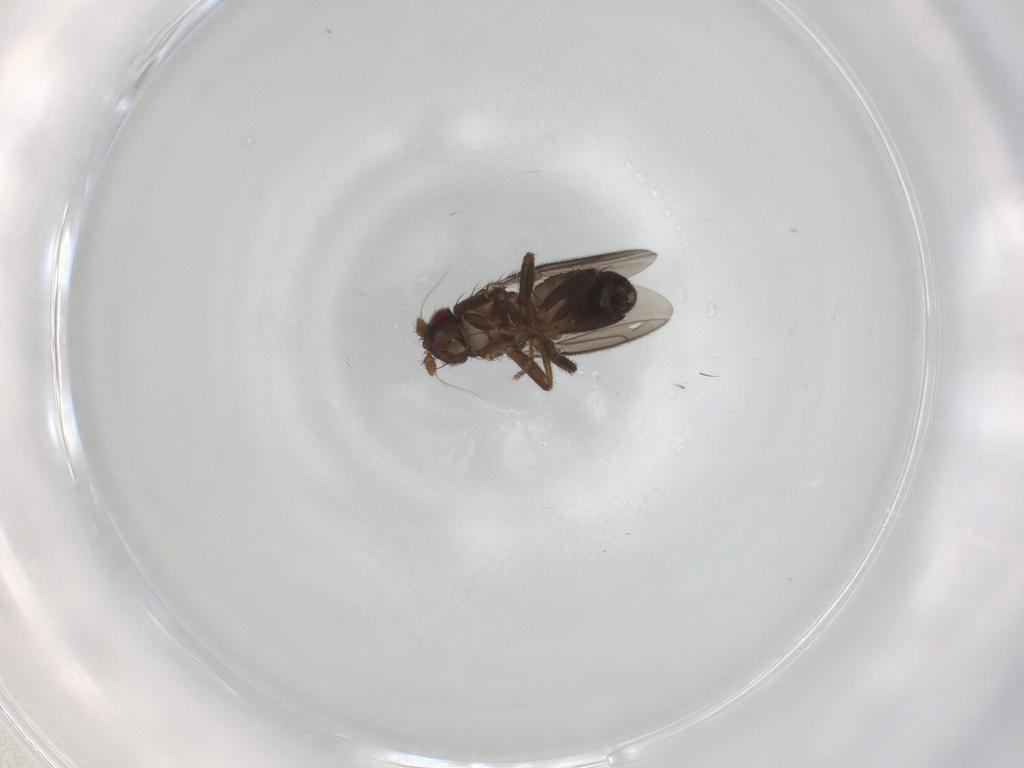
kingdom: Animalia
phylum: Arthropoda
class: Insecta
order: Diptera
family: Sphaeroceridae
